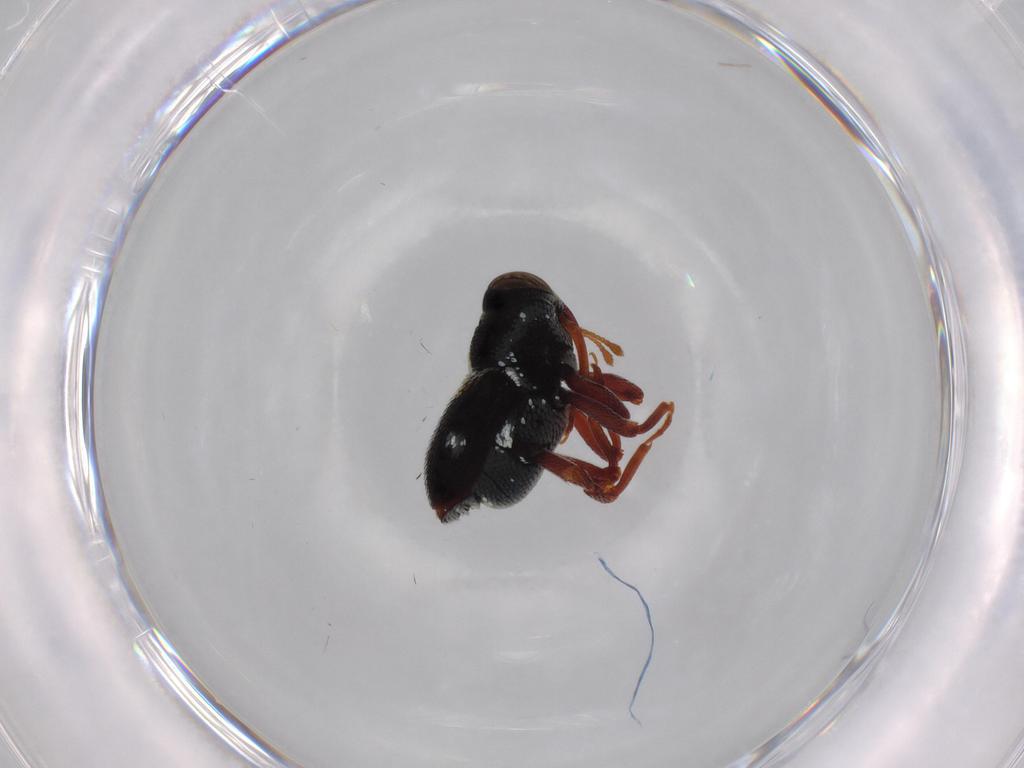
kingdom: Animalia
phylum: Arthropoda
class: Insecta
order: Coleoptera
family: Curculionidae
